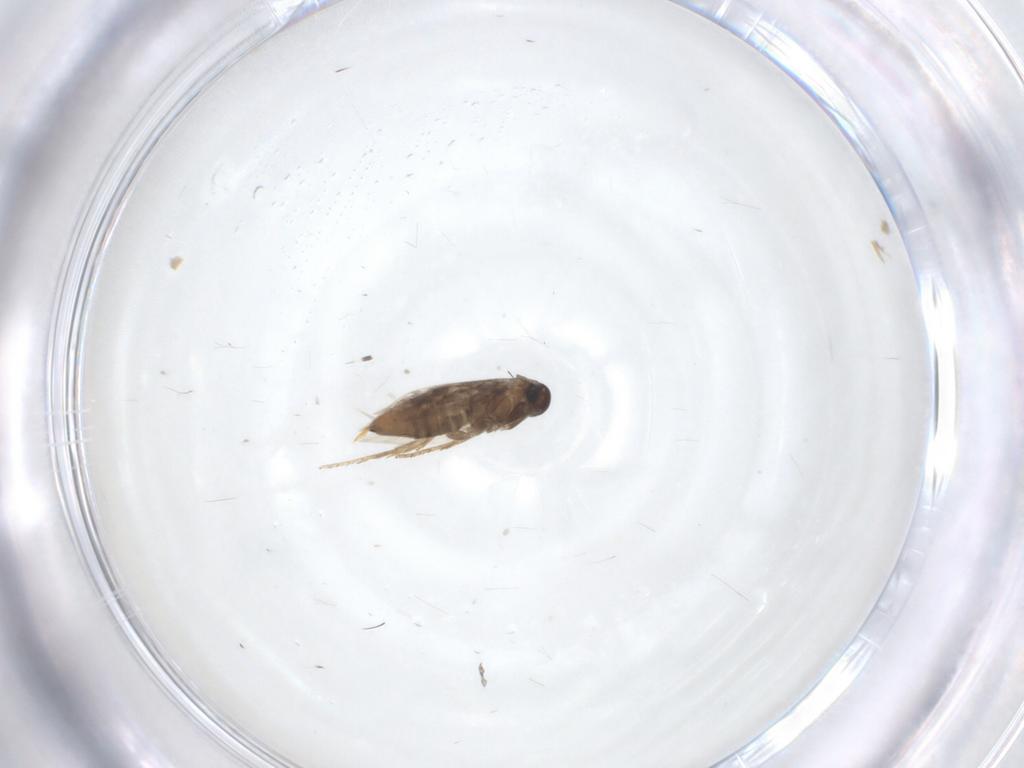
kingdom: Animalia
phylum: Arthropoda
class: Insecta
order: Lepidoptera
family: Heliozelidae
